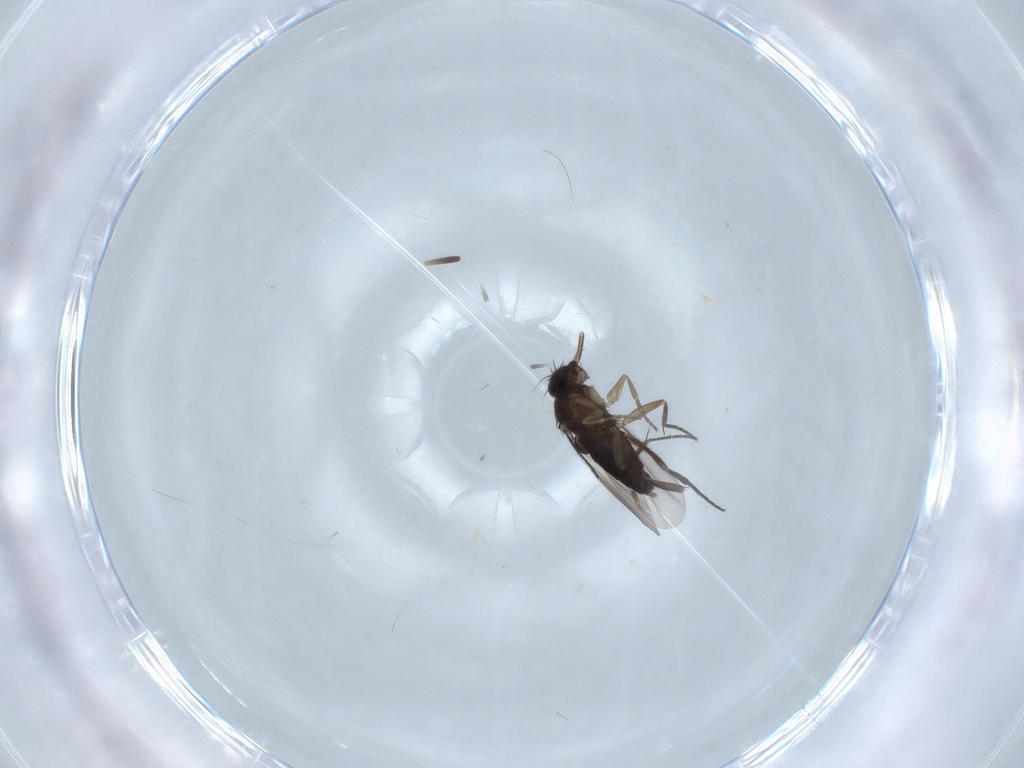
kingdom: Animalia
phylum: Arthropoda
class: Insecta
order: Diptera
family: Phoridae
